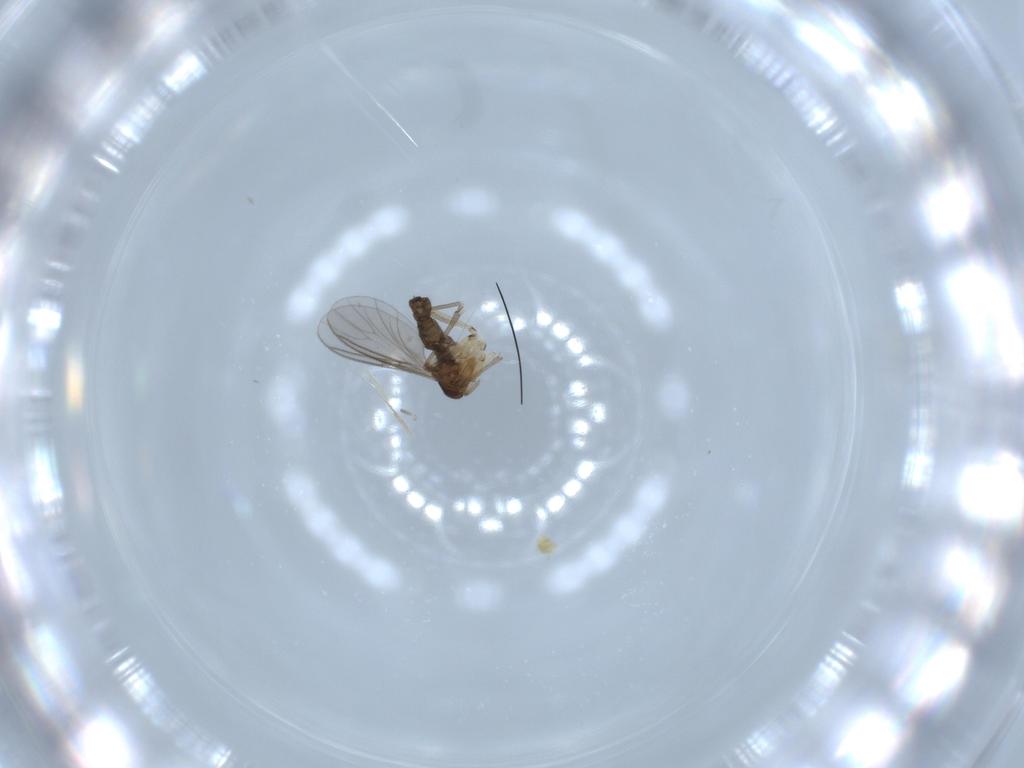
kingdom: Animalia
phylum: Arthropoda
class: Insecta
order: Diptera
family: Sciaridae
